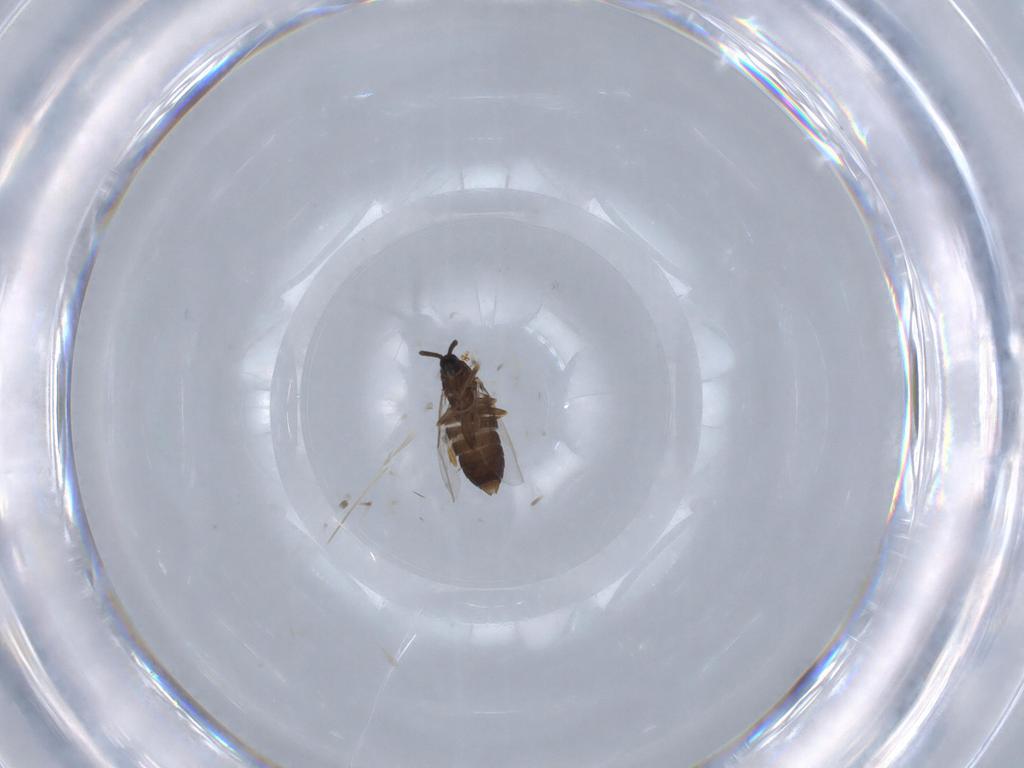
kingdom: Animalia
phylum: Arthropoda
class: Insecta
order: Diptera
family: Scatopsidae
